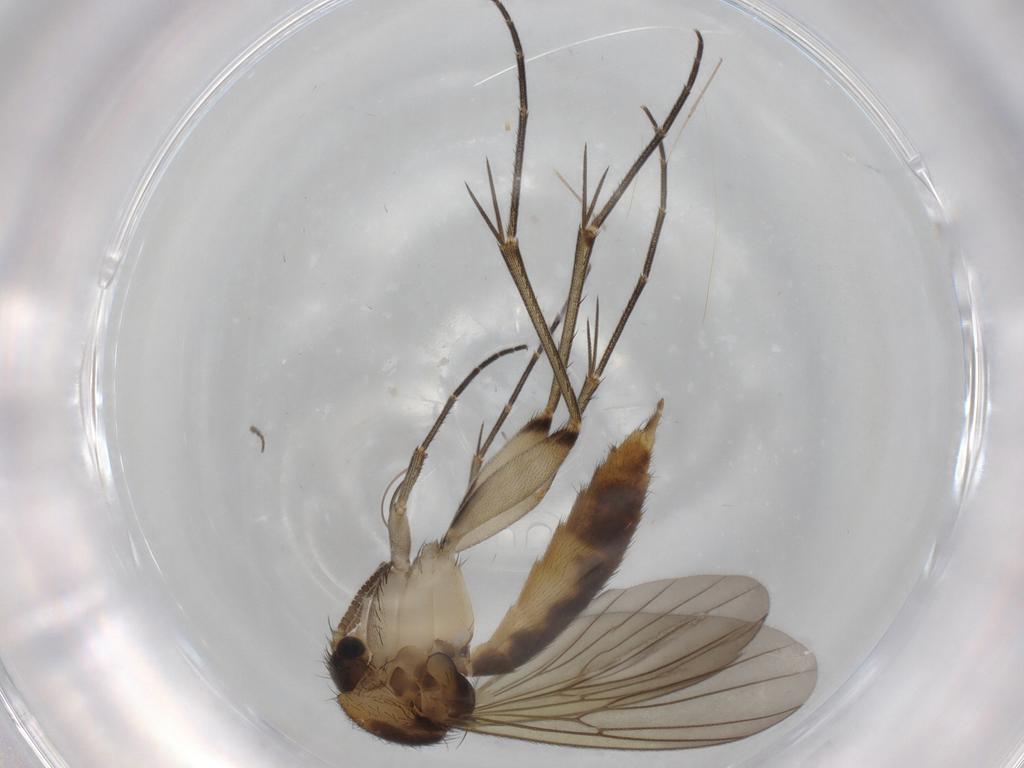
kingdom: Animalia
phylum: Arthropoda
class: Insecta
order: Diptera
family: Mycetophilidae
